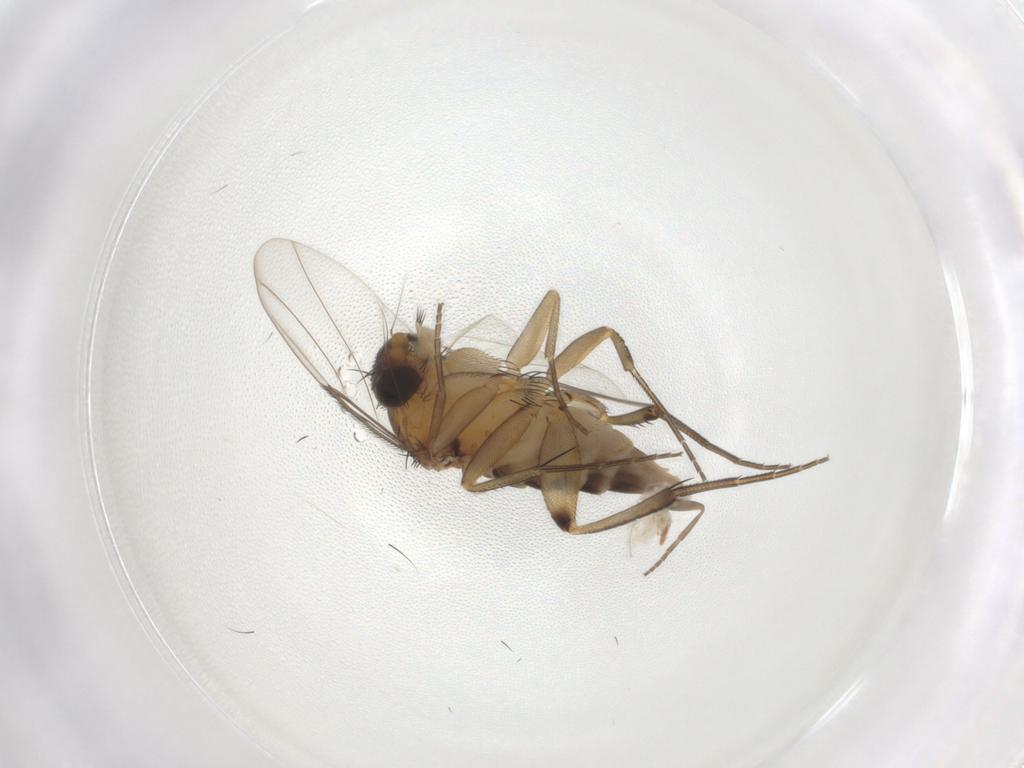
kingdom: Animalia
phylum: Arthropoda
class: Insecta
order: Diptera
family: Phoridae
